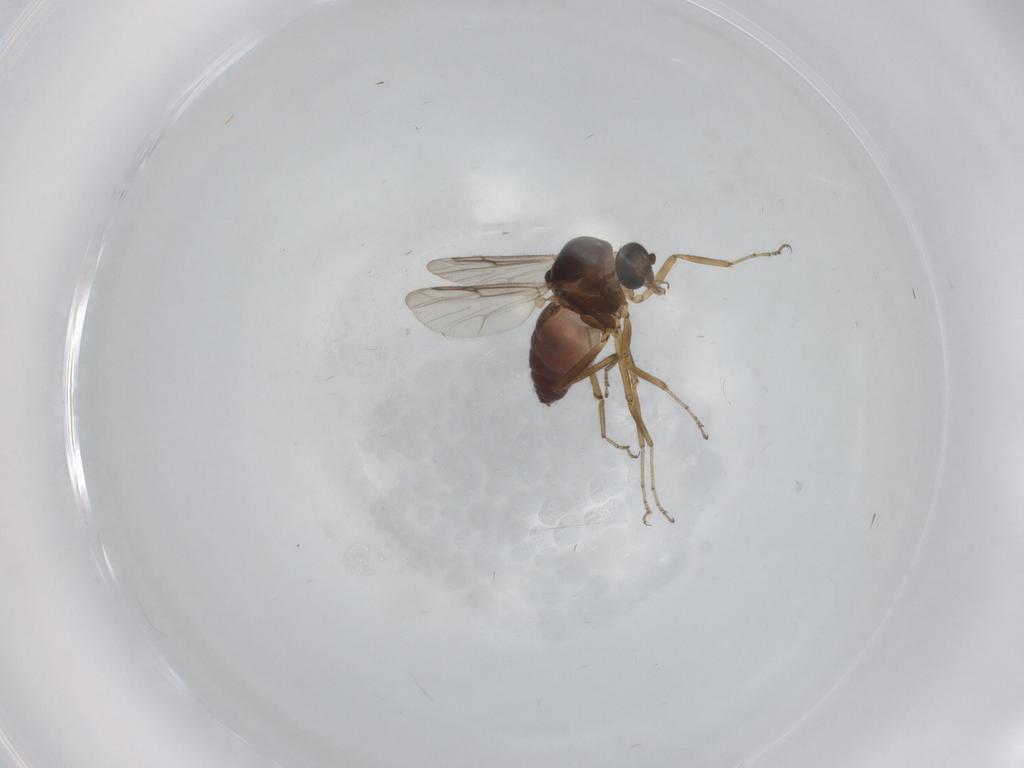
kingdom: Animalia
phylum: Arthropoda
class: Insecta
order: Diptera
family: Ceratopogonidae
